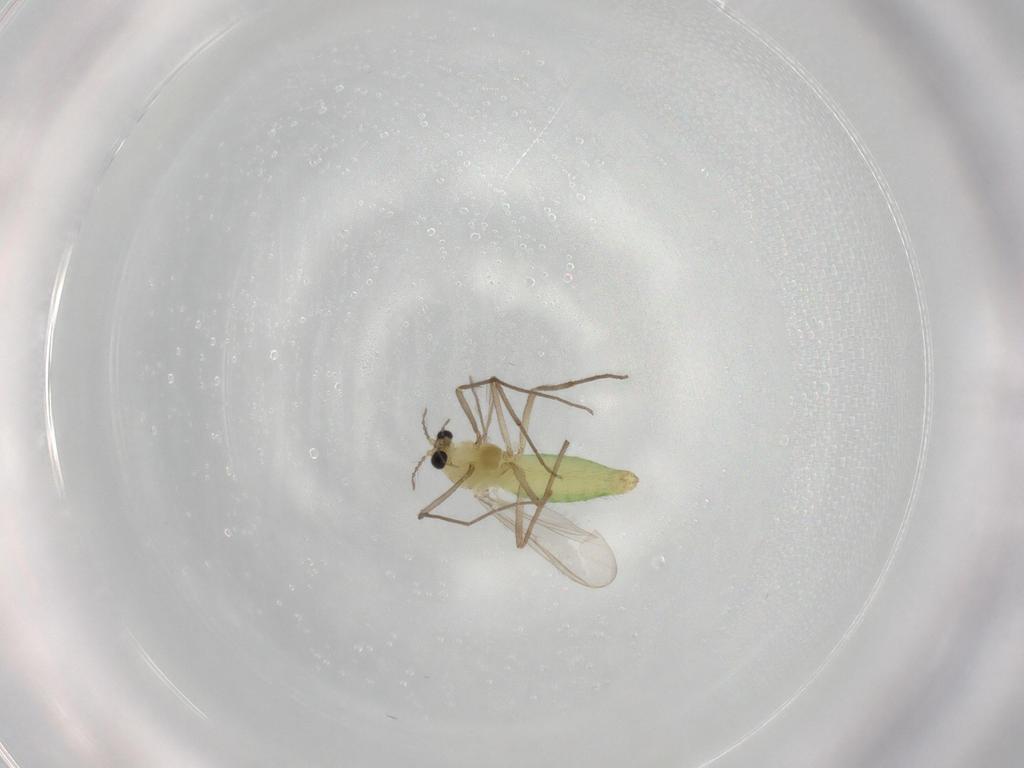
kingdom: Animalia
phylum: Arthropoda
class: Insecta
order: Diptera
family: Chironomidae
